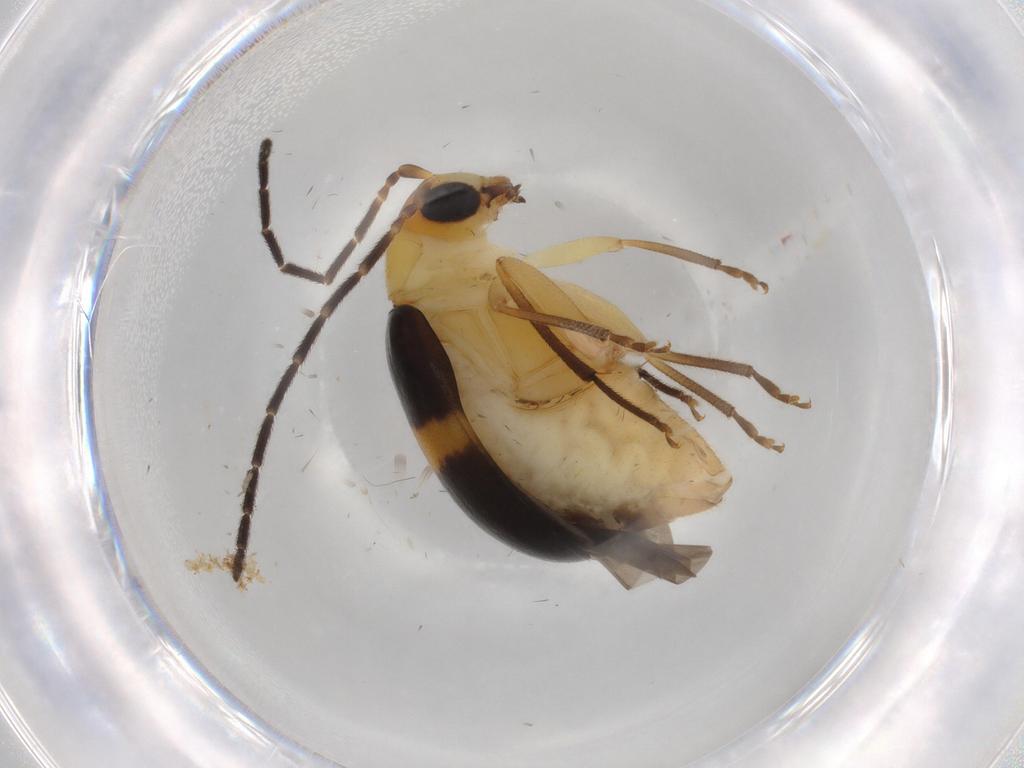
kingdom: Animalia
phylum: Arthropoda
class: Insecta
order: Coleoptera
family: Chrysomelidae
